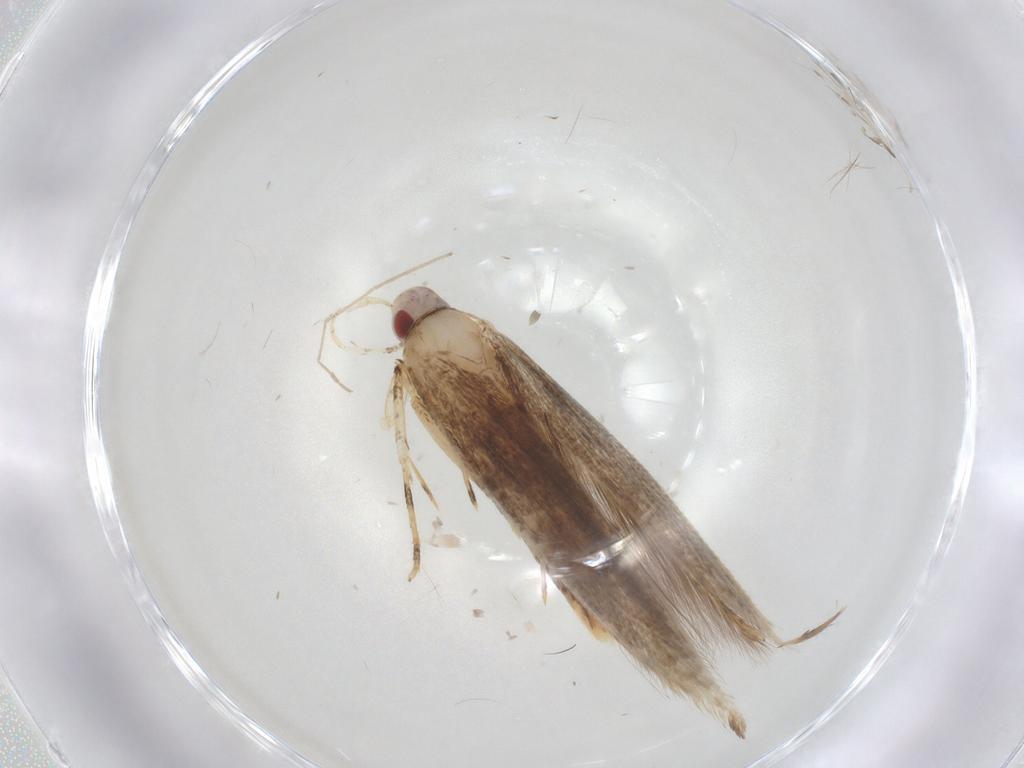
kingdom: Animalia
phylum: Arthropoda
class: Insecta
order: Lepidoptera
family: Cosmopterigidae
